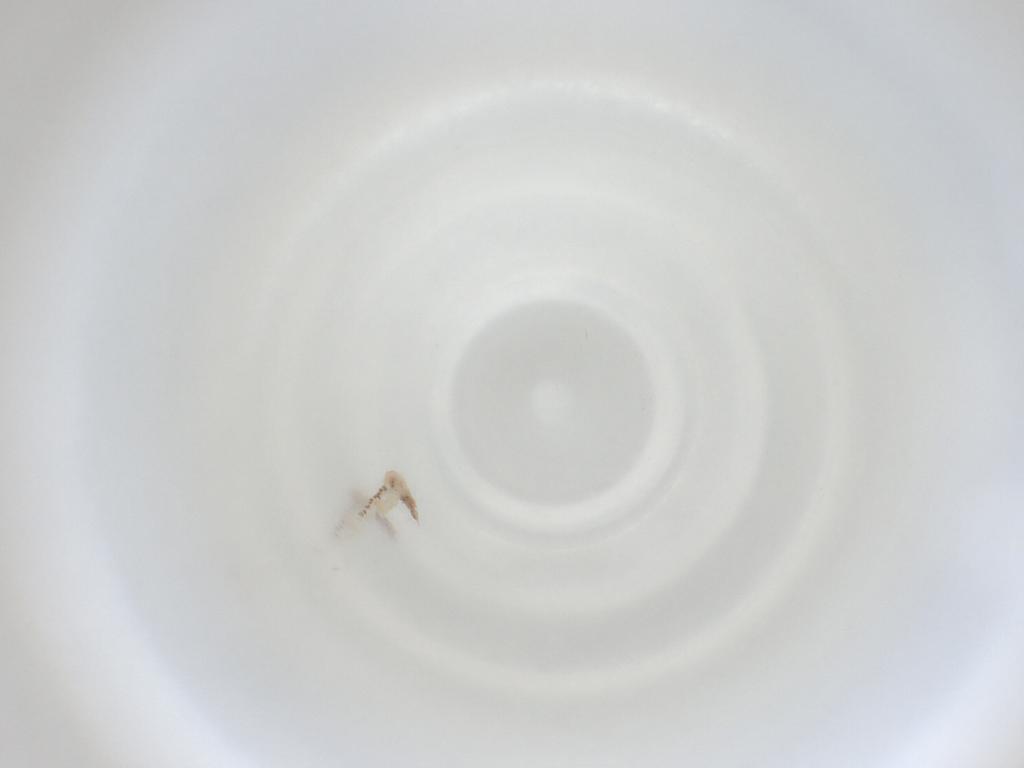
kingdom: Animalia
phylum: Arthropoda
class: Insecta
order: Diptera
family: Cecidomyiidae
